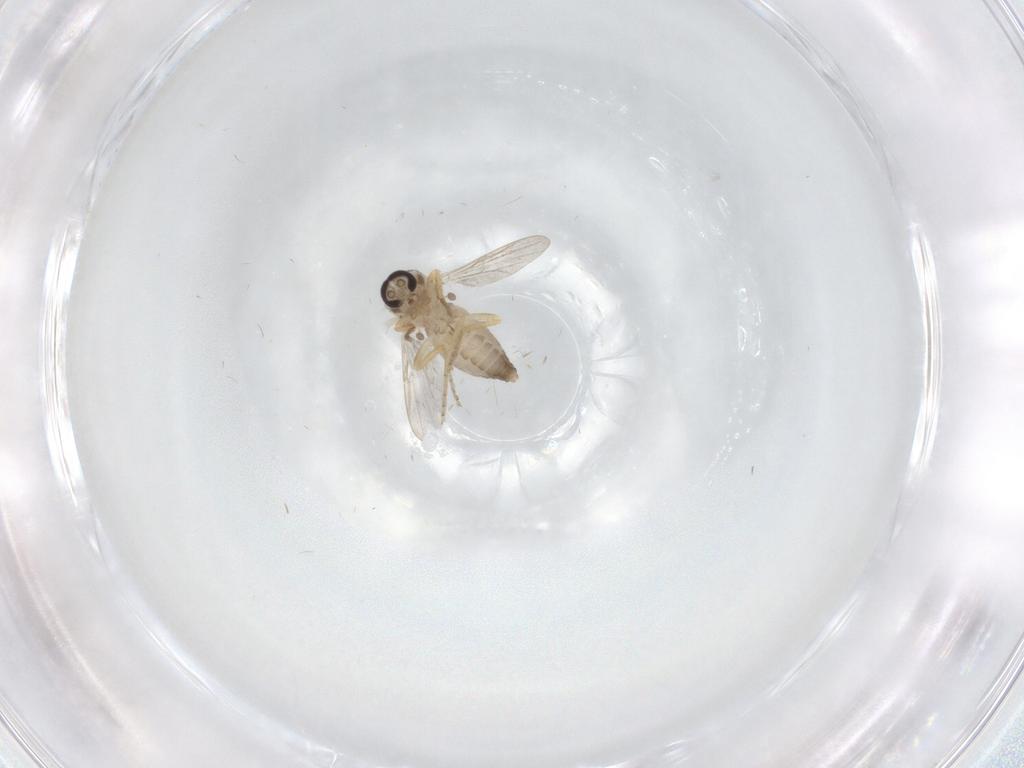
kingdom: Animalia
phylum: Arthropoda
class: Insecta
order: Diptera
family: Ceratopogonidae
